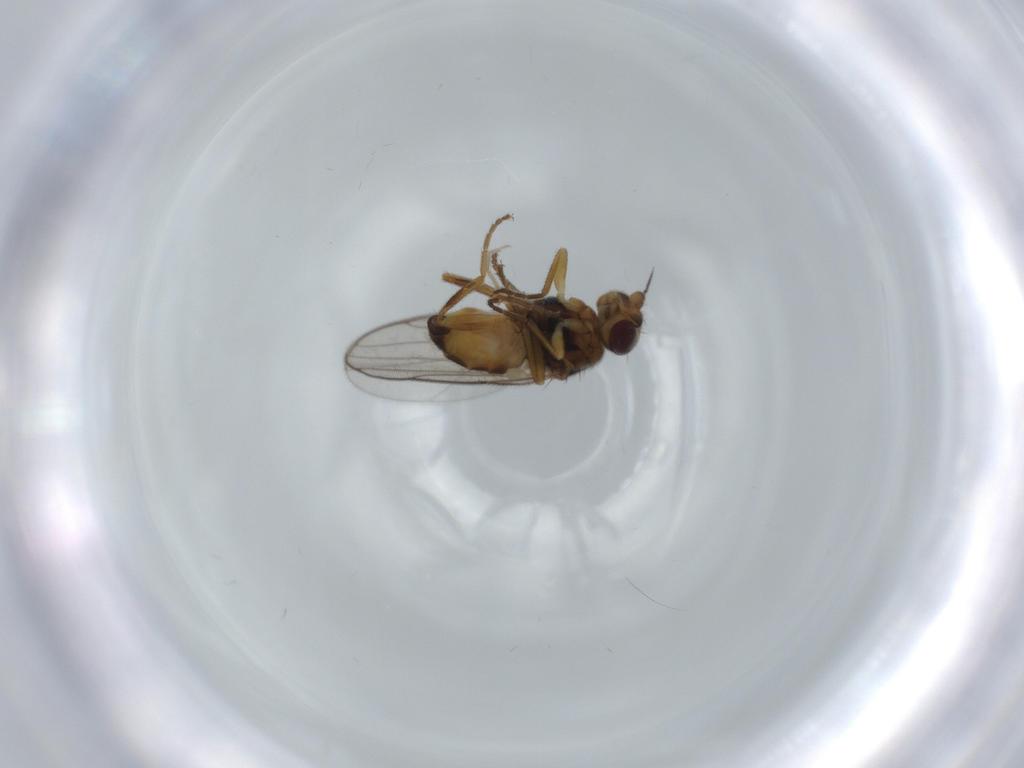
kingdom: Animalia
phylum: Arthropoda
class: Insecta
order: Diptera
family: Chloropidae
